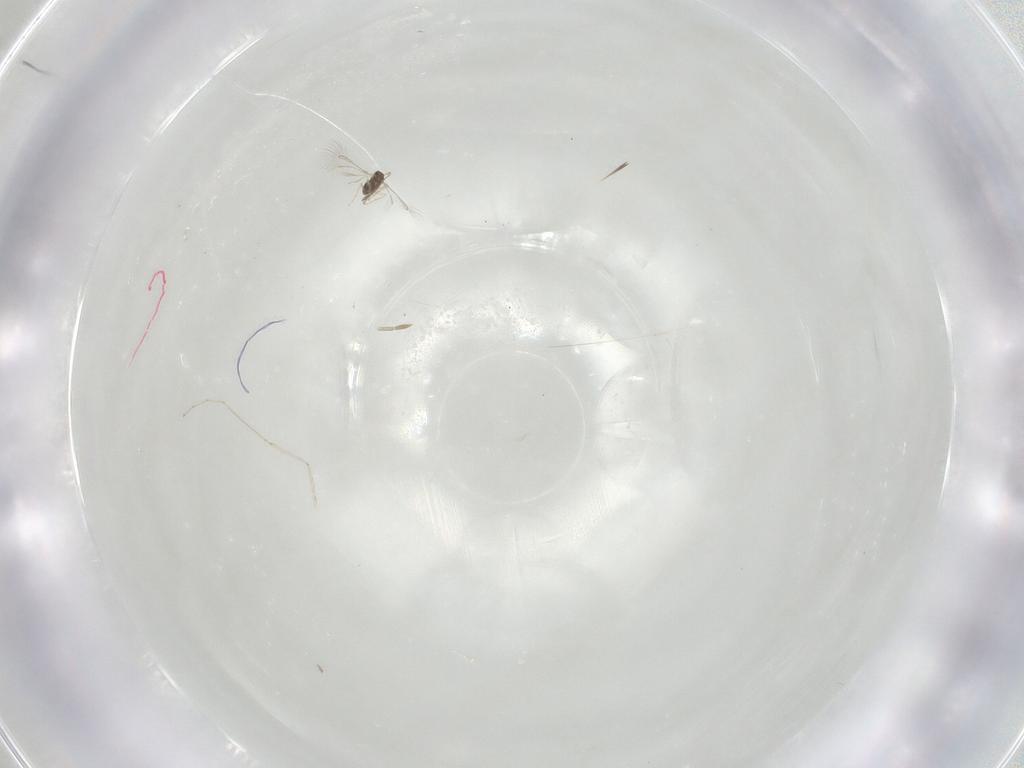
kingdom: Animalia
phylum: Arthropoda
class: Insecta
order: Diptera
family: Cecidomyiidae
